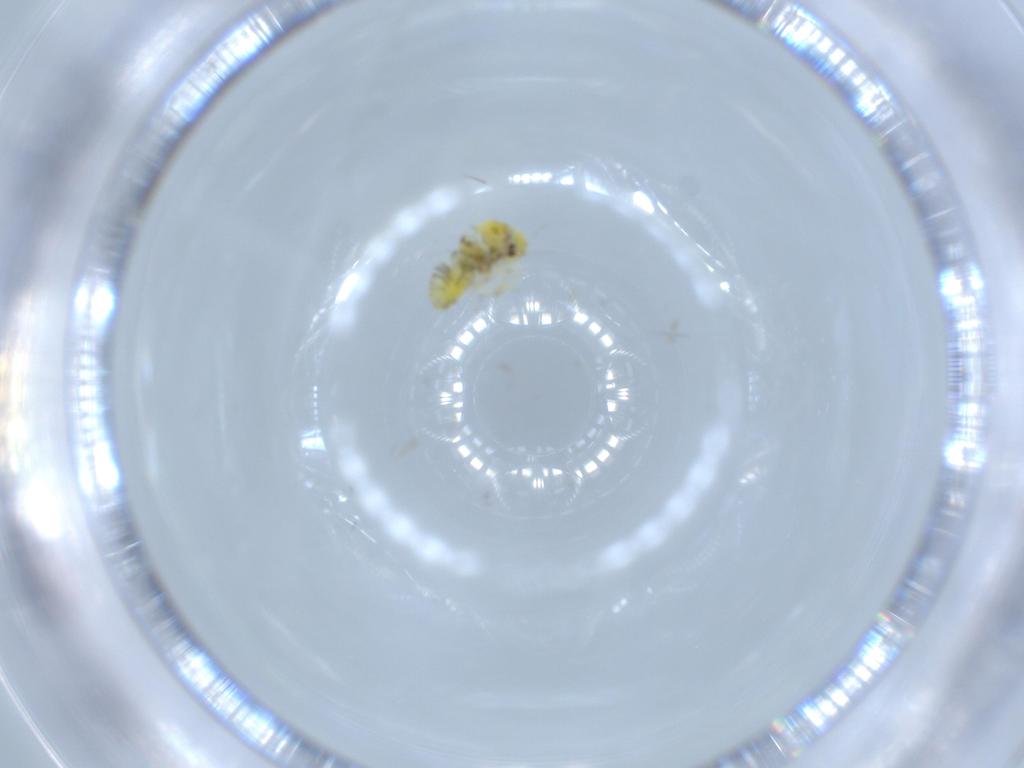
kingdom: Animalia
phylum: Arthropoda
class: Insecta
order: Hemiptera
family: Aleyrodidae
